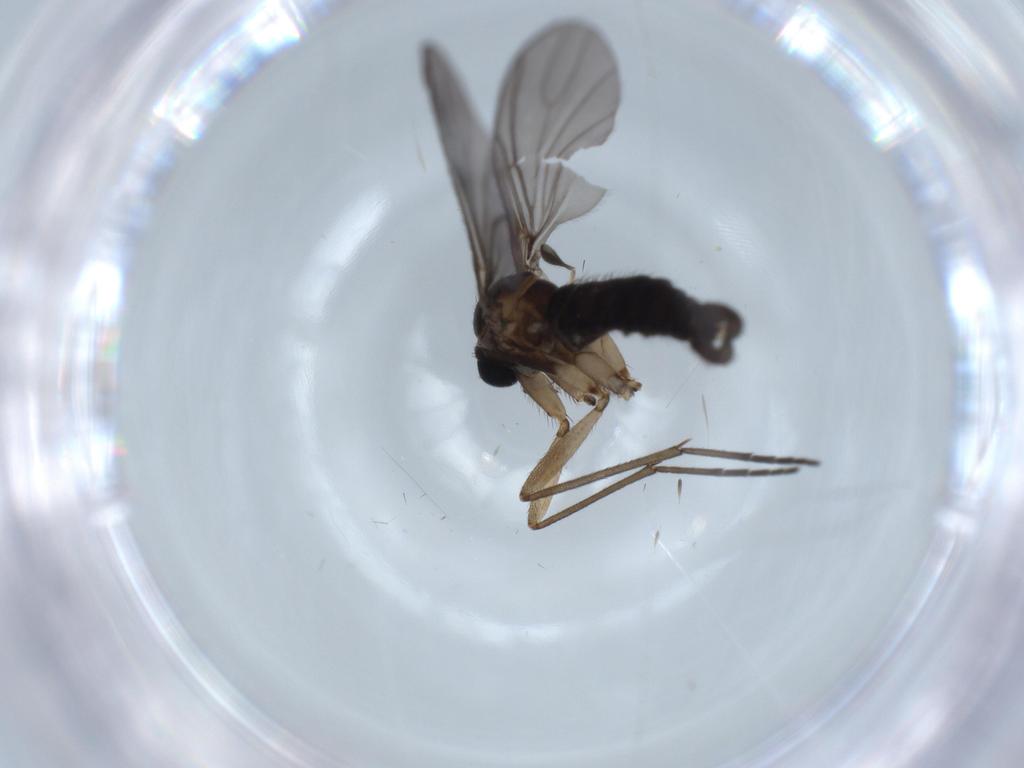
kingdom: Animalia
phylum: Arthropoda
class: Insecta
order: Diptera
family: Sciaridae
